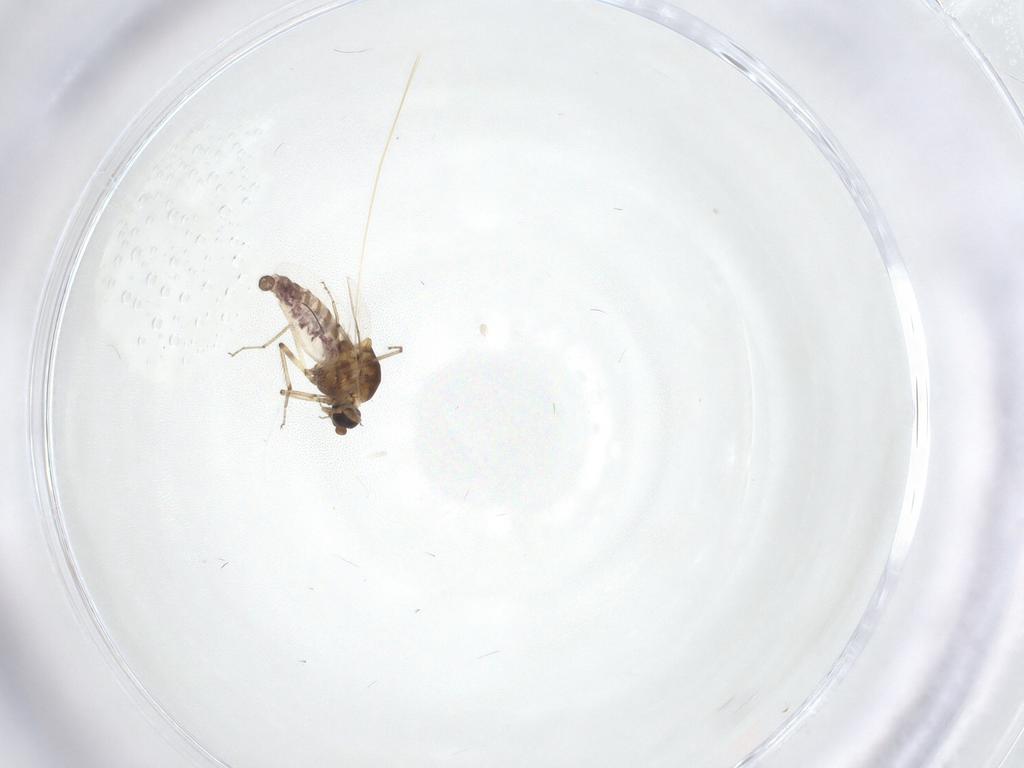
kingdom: Animalia
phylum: Arthropoda
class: Insecta
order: Diptera
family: Ceratopogonidae
